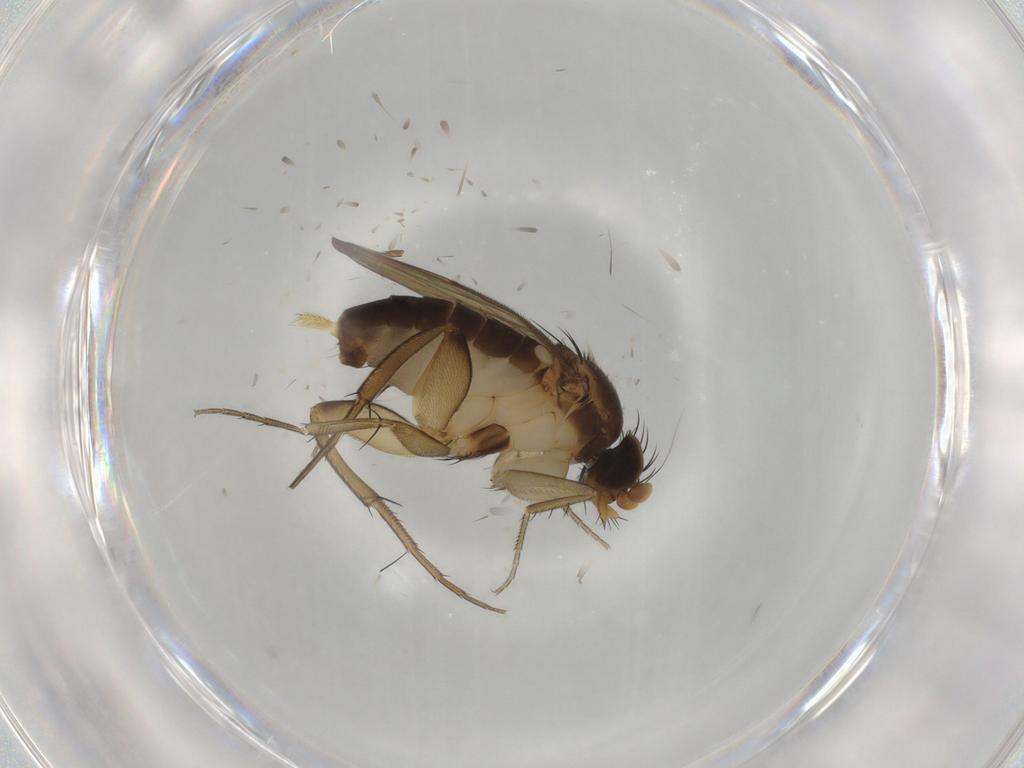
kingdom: Animalia
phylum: Arthropoda
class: Insecta
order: Diptera
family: Phoridae
